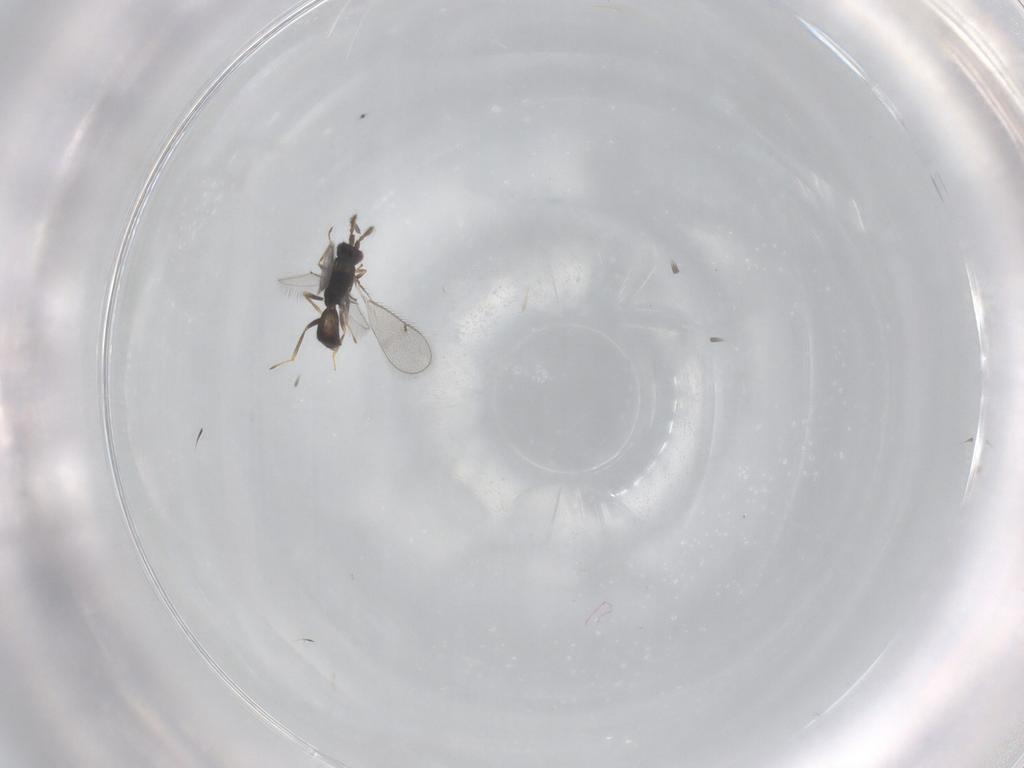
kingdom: Animalia
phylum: Arthropoda
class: Insecta
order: Hymenoptera
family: Eulophidae
